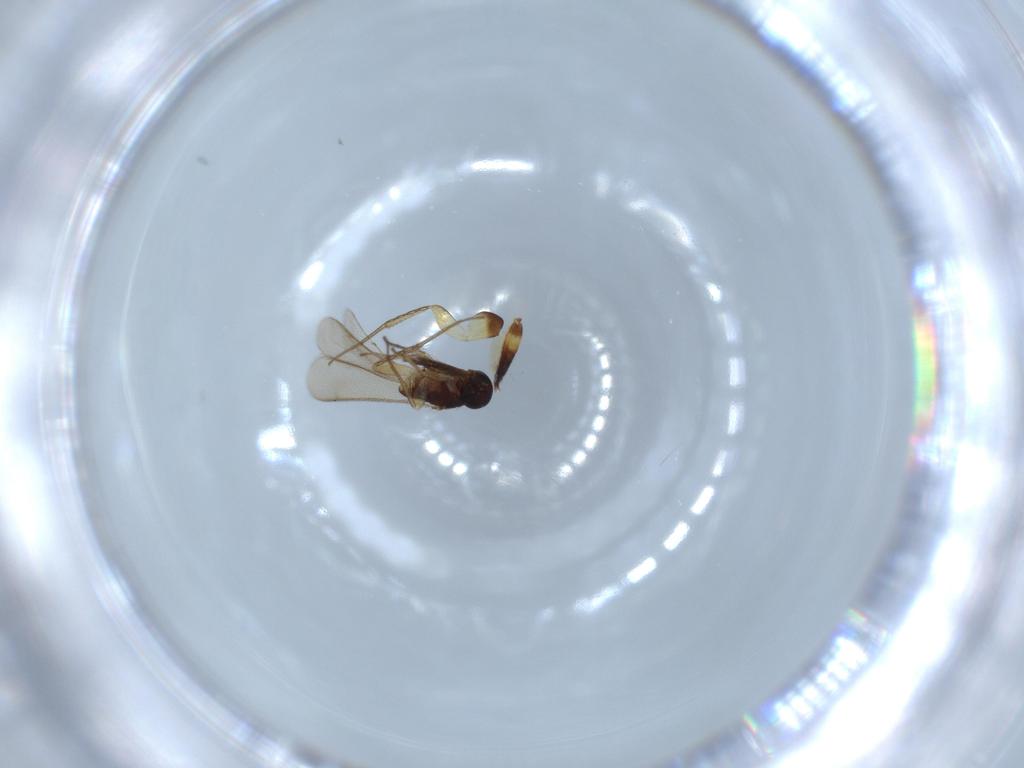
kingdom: Animalia
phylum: Arthropoda
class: Insecta
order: Hymenoptera
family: Eulophidae
